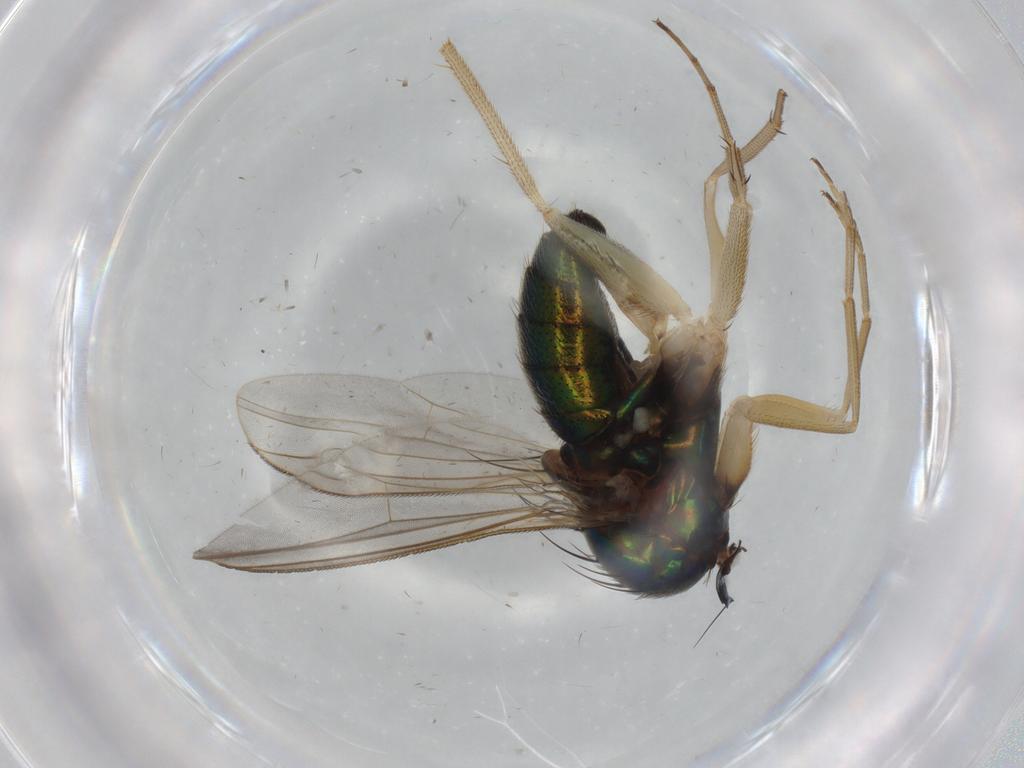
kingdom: Animalia
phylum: Arthropoda
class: Insecta
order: Diptera
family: Dolichopodidae
